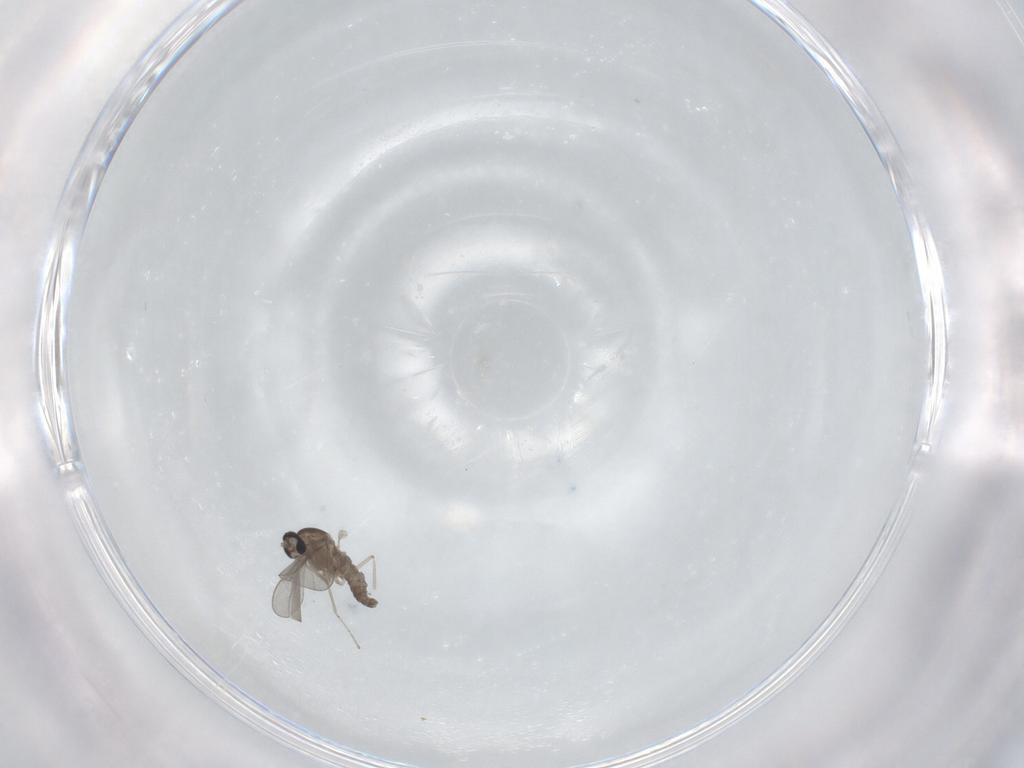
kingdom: Animalia
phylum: Arthropoda
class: Insecta
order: Diptera
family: Cecidomyiidae
